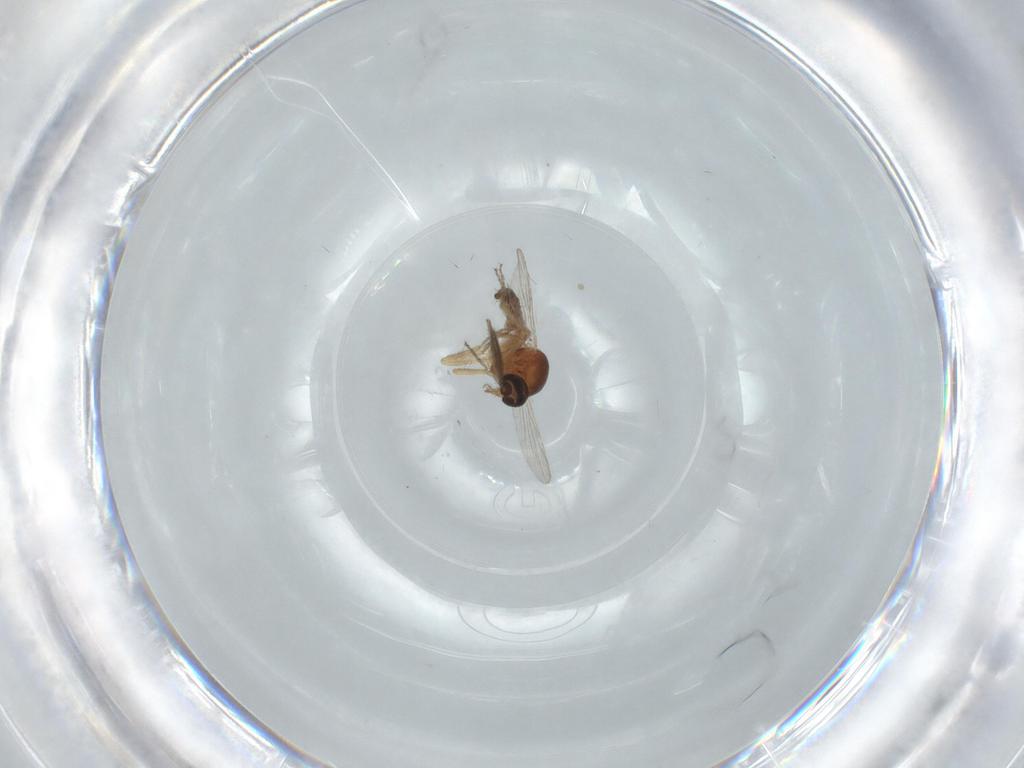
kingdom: Animalia
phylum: Arthropoda
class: Insecta
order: Diptera
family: Ceratopogonidae
